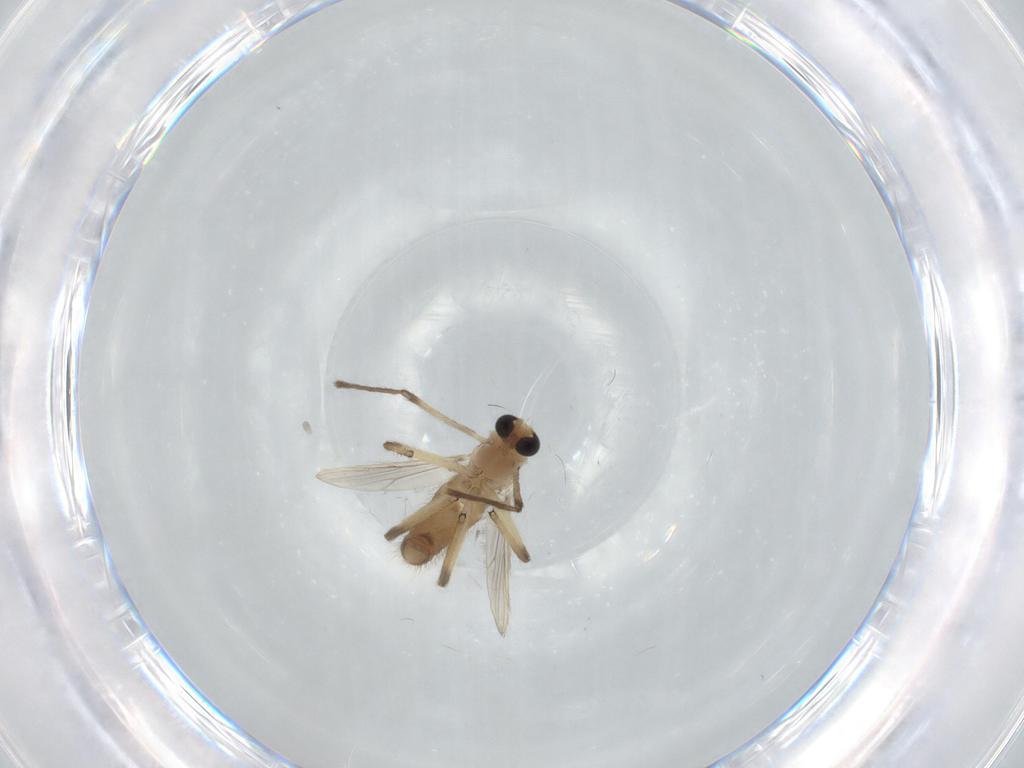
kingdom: Animalia
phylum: Arthropoda
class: Insecta
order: Diptera
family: Chironomidae
